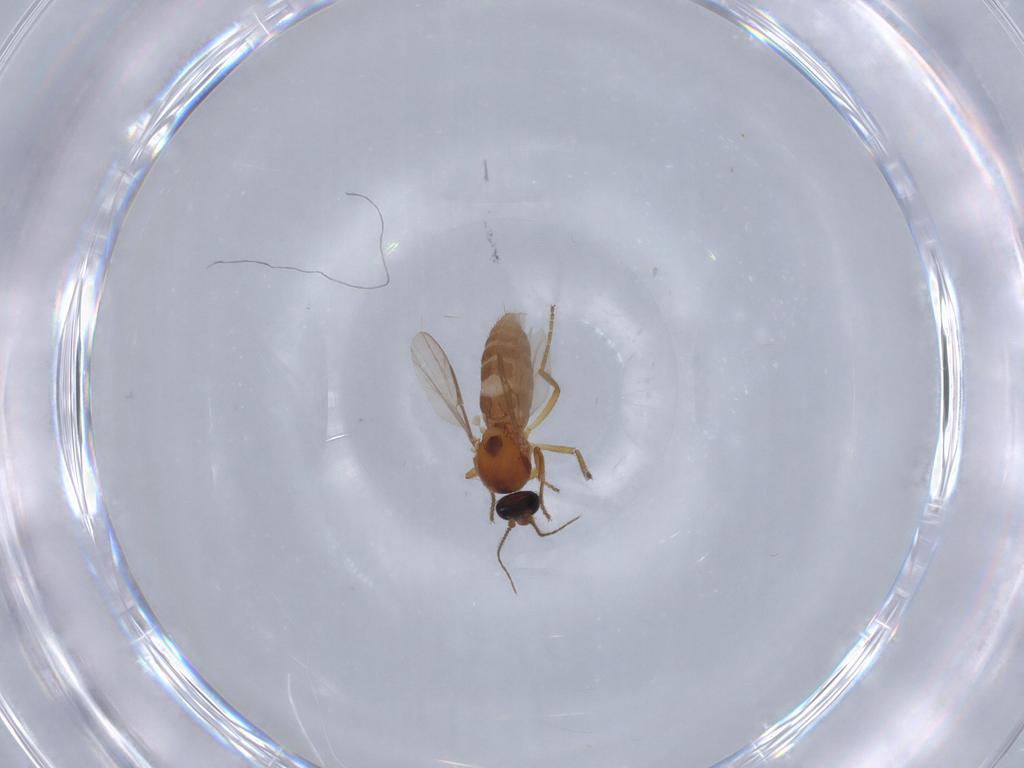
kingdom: Animalia
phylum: Arthropoda
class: Insecta
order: Diptera
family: Ceratopogonidae
